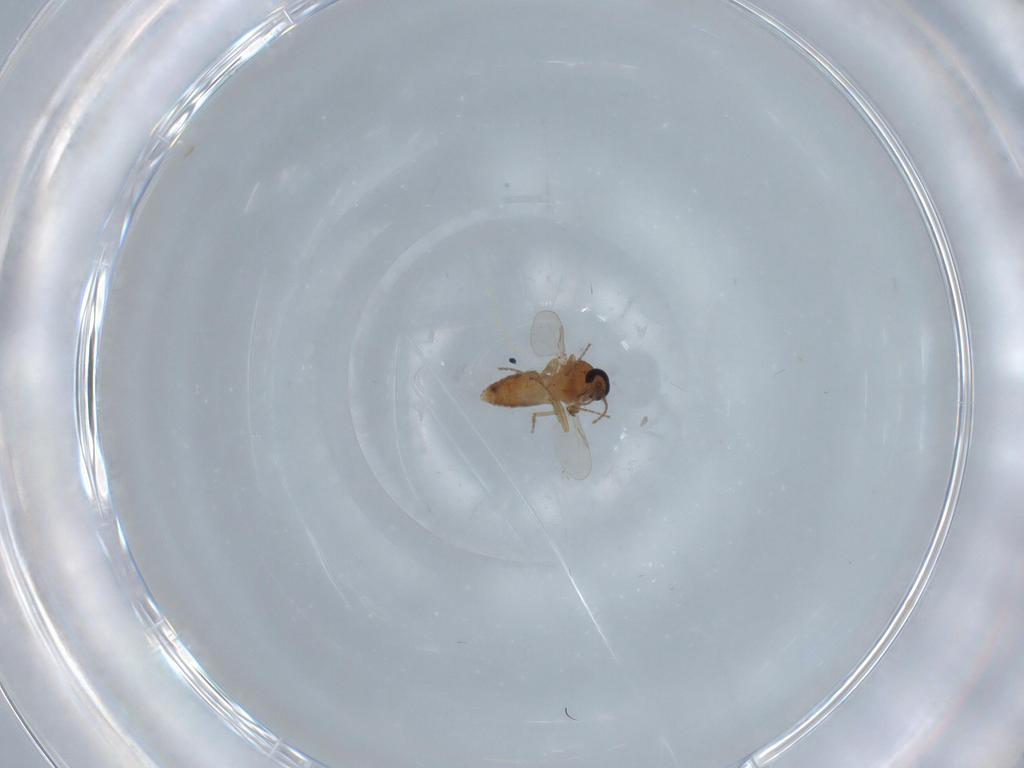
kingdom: Animalia
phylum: Arthropoda
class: Insecta
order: Diptera
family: Ceratopogonidae
